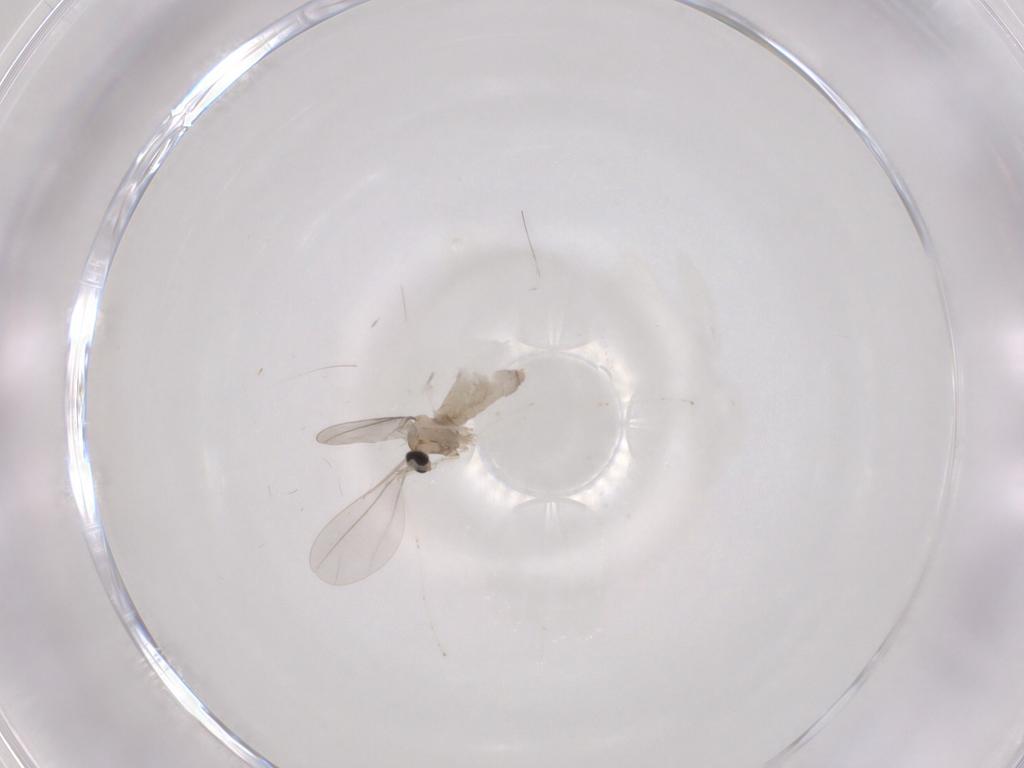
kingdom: Animalia
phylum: Arthropoda
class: Insecta
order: Diptera
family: Cecidomyiidae
